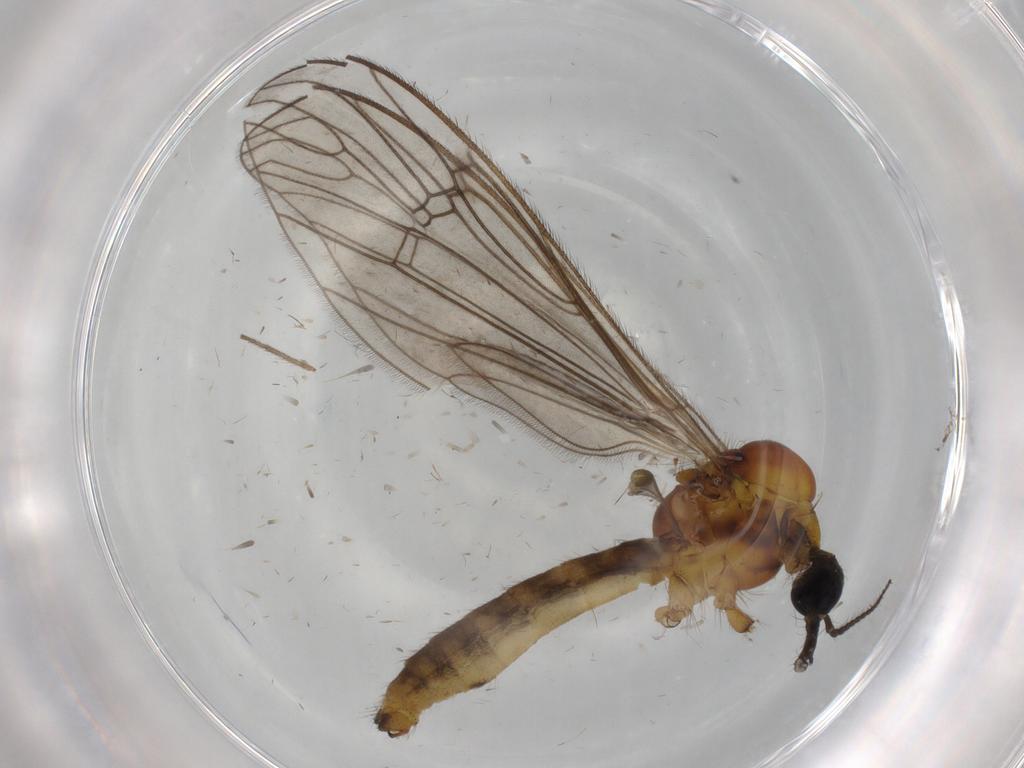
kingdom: Animalia
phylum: Arthropoda
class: Insecta
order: Diptera
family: Limoniidae
